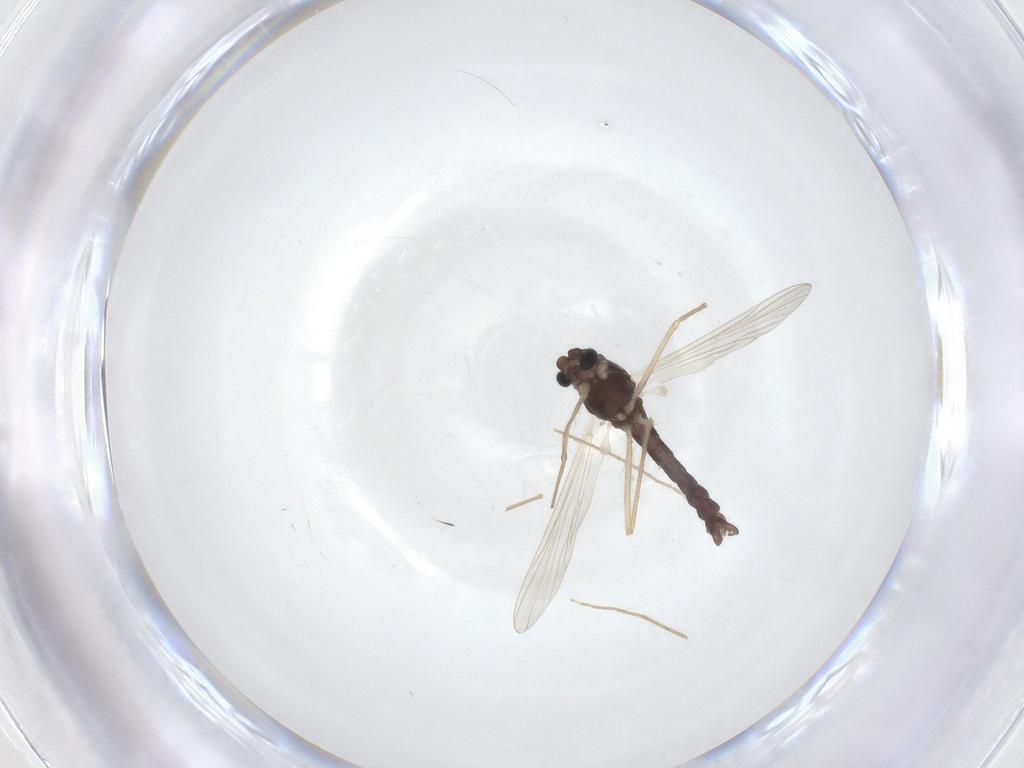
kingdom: Animalia
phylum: Arthropoda
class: Insecta
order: Diptera
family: Chironomidae
